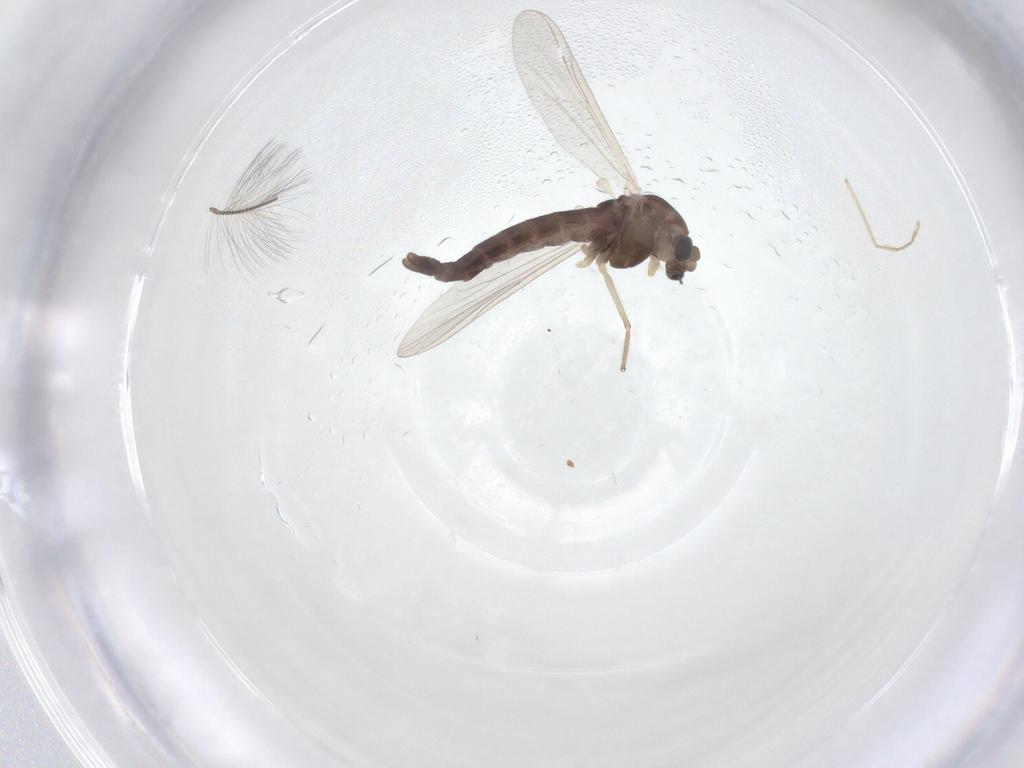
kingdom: Animalia
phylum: Arthropoda
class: Insecta
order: Diptera
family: Chironomidae
